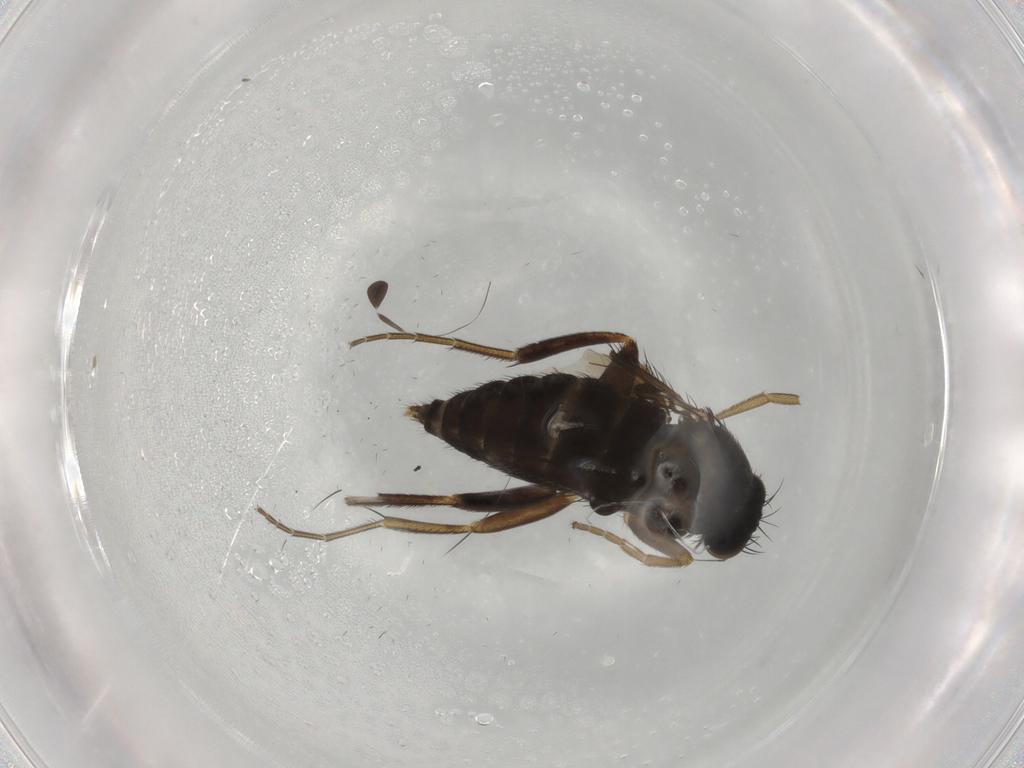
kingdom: Animalia
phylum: Arthropoda
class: Insecta
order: Diptera
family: Phoridae
